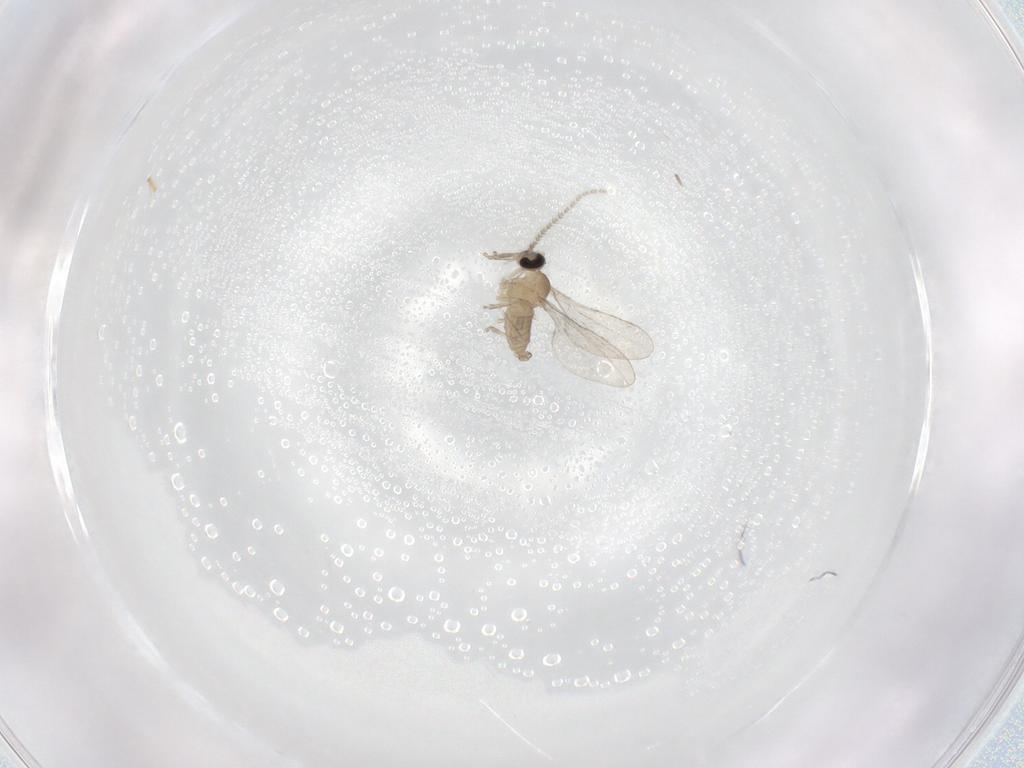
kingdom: Animalia
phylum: Arthropoda
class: Insecta
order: Diptera
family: Cecidomyiidae
